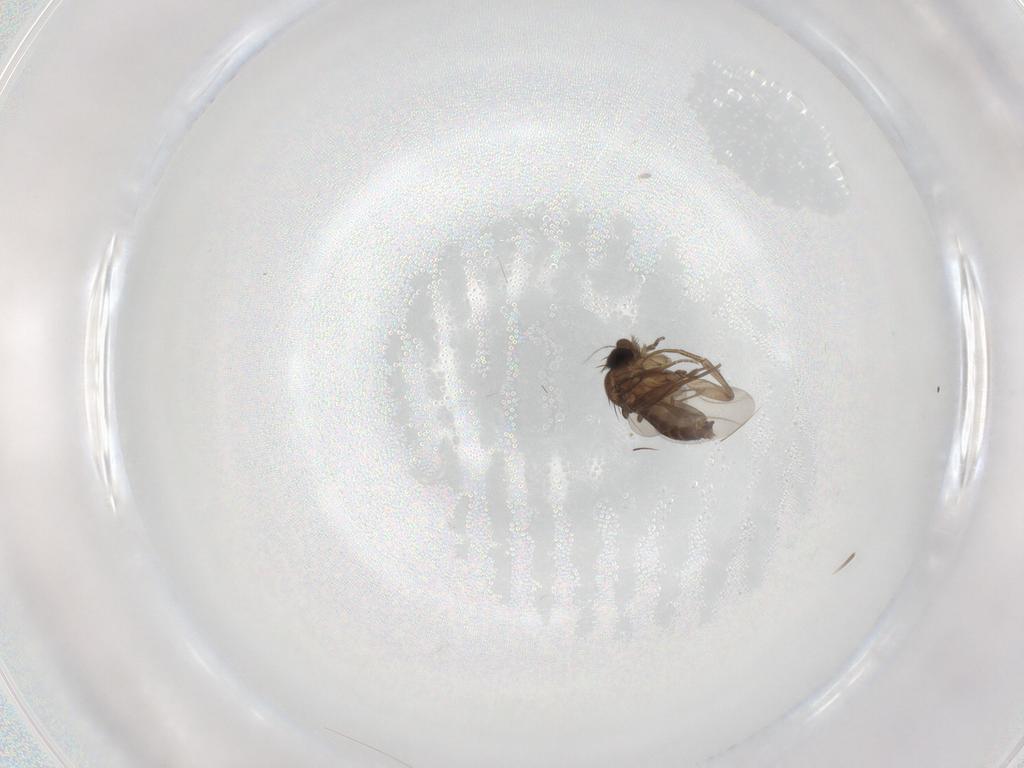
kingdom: Animalia
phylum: Arthropoda
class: Insecta
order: Diptera
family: Phoridae
